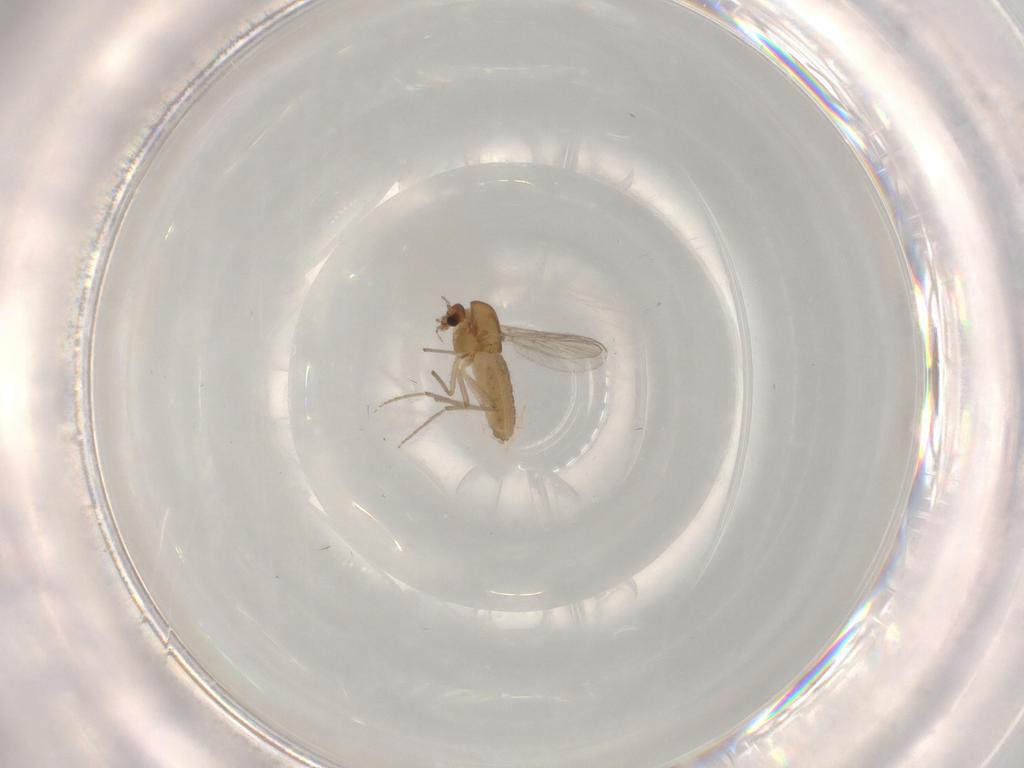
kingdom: Animalia
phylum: Arthropoda
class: Insecta
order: Diptera
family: Chironomidae
